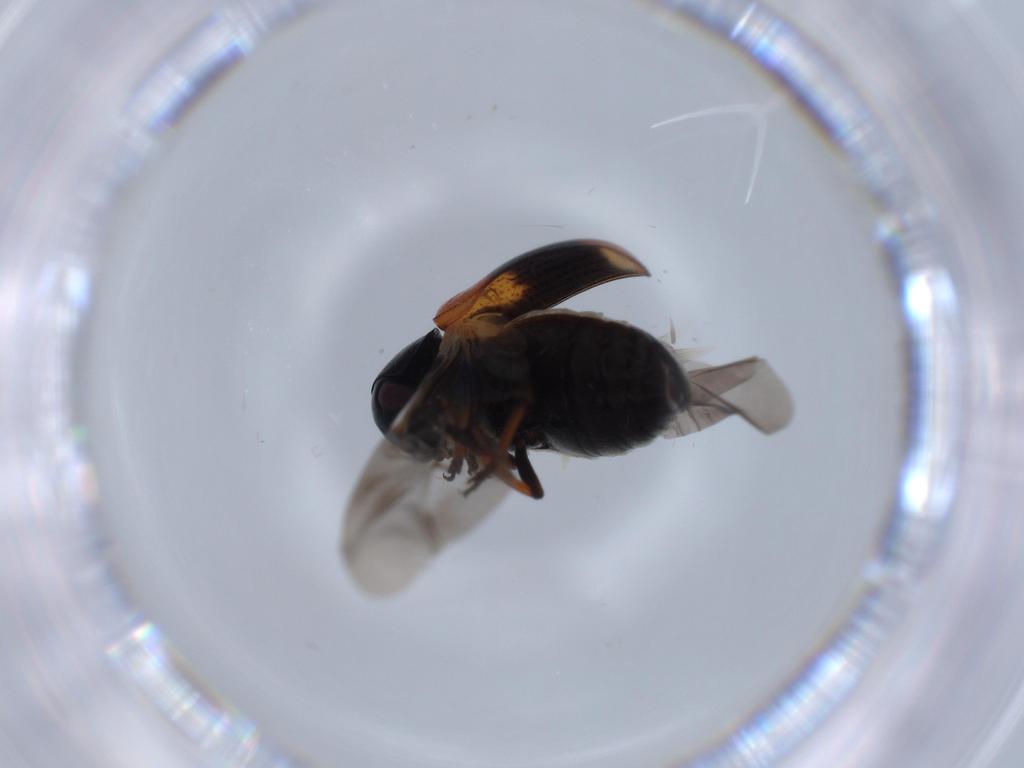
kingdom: Animalia
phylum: Arthropoda
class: Insecta
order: Coleoptera
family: Chrysomelidae
